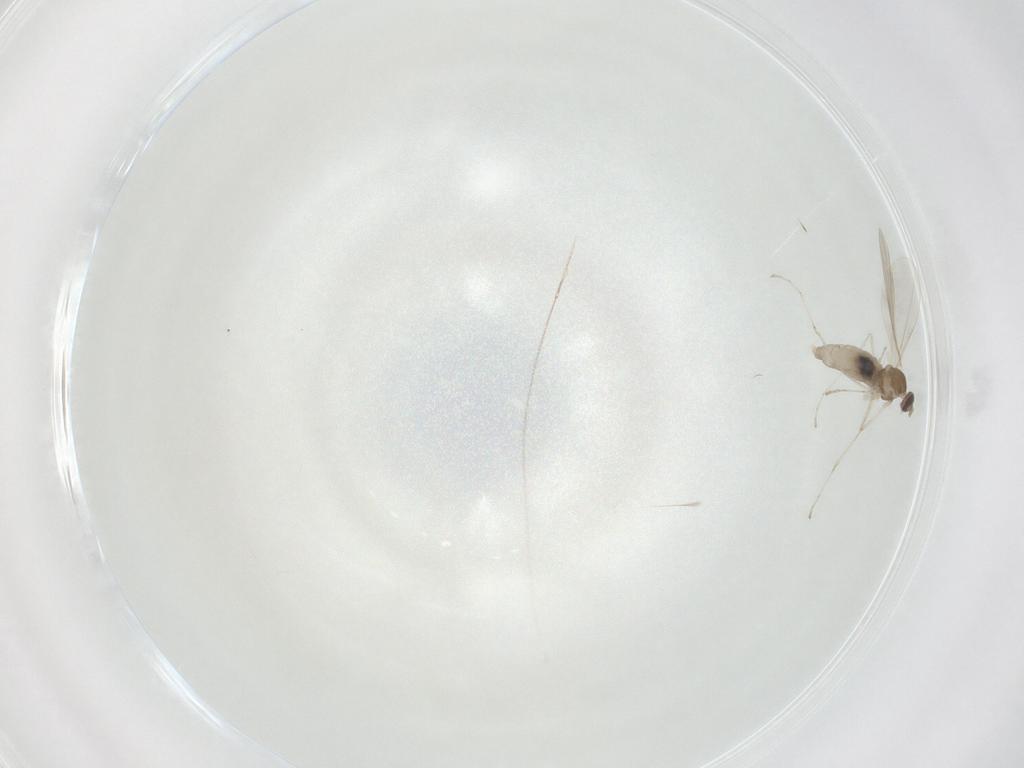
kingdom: Animalia
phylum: Arthropoda
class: Insecta
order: Diptera
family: Cecidomyiidae
